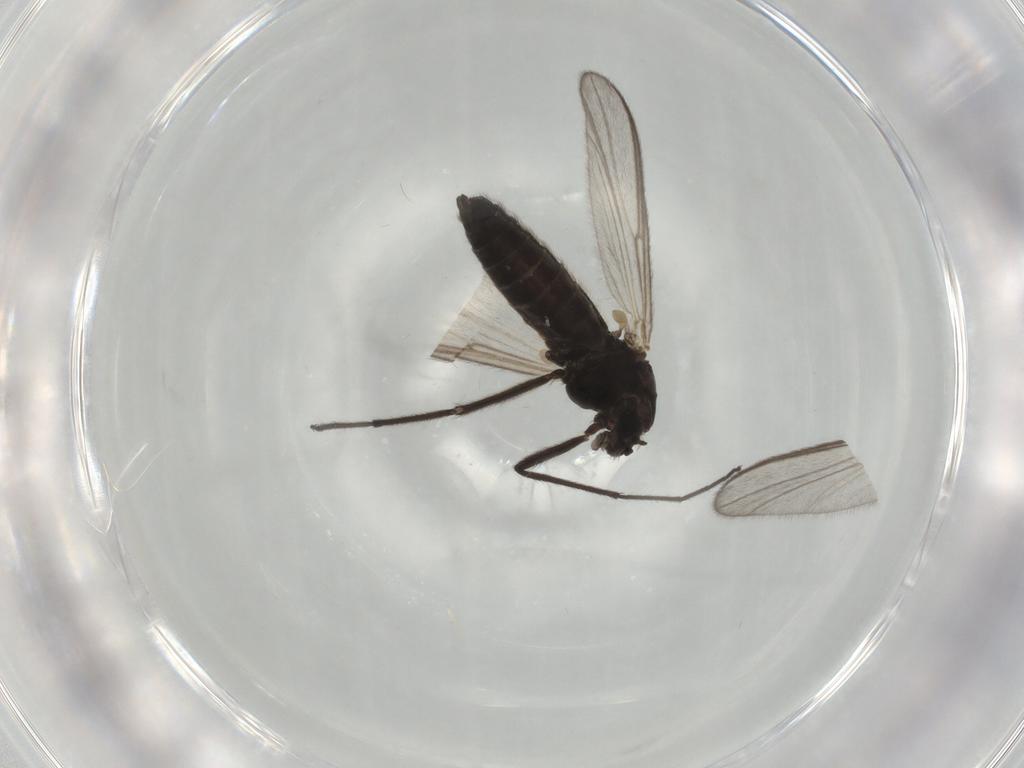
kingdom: Animalia
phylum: Arthropoda
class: Insecta
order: Diptera
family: Chironomidae
